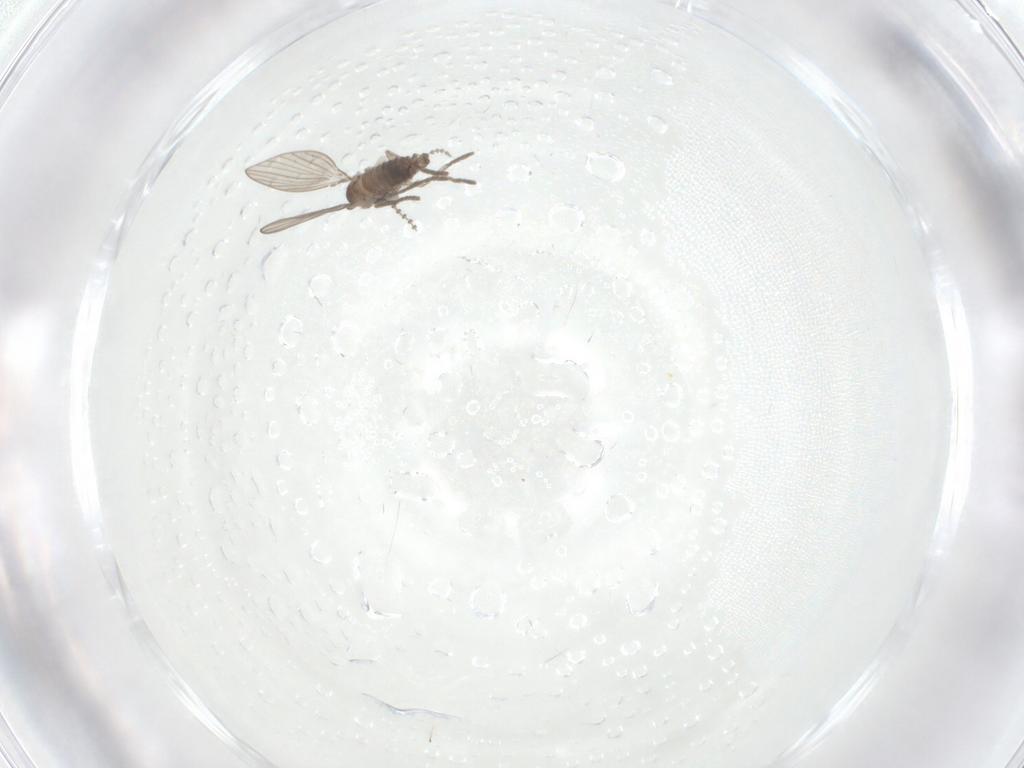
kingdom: Animalia
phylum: Arthropoda
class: Insecta
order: Diptera
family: Psychodidae
